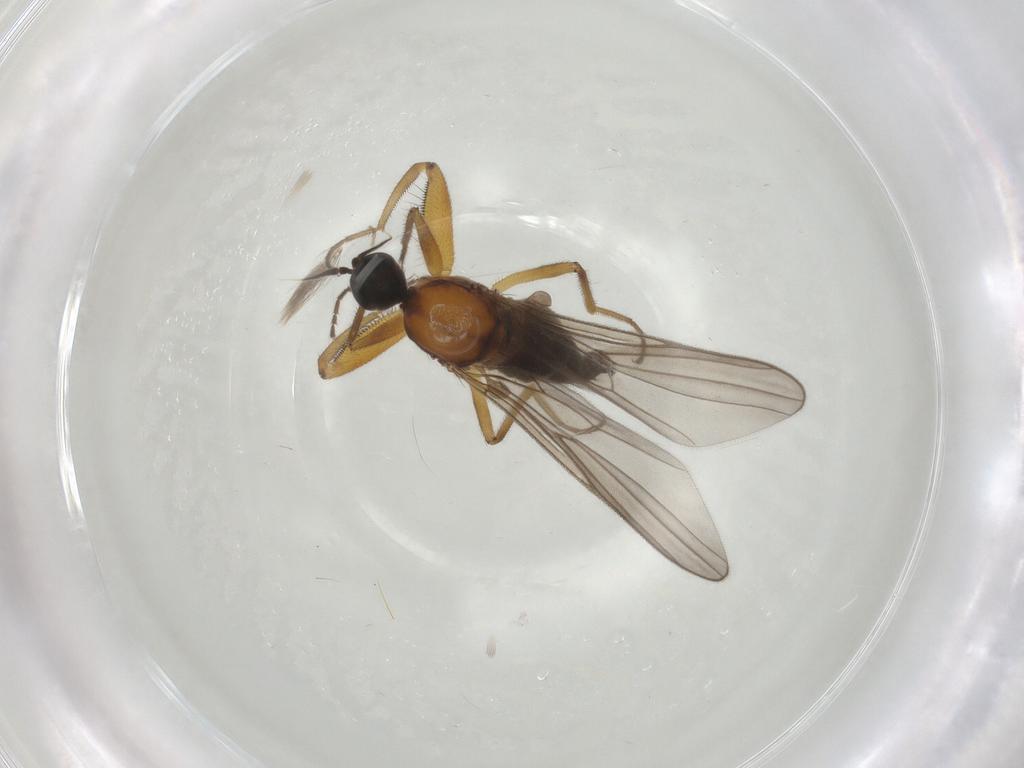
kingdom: Animalia
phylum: Arthropoda
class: Insecta
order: Diptera
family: Hybotidae
